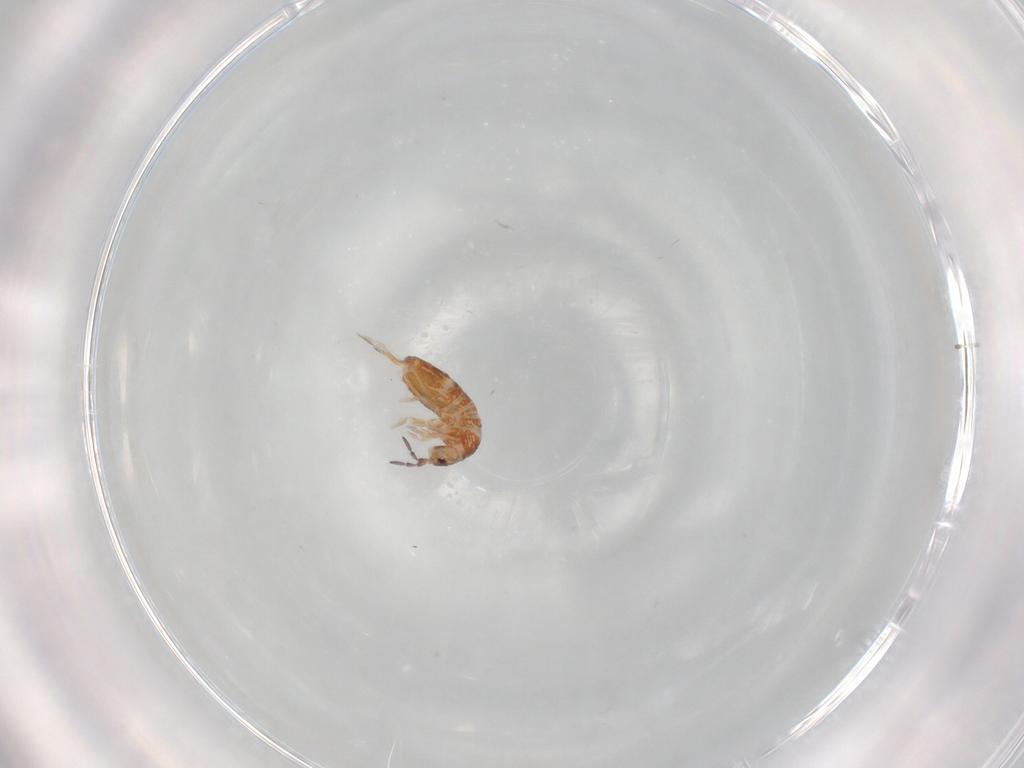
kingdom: Animalia
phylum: Arthropoda
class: Collembola
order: Entomobryomorpha
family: Entomobryidae
